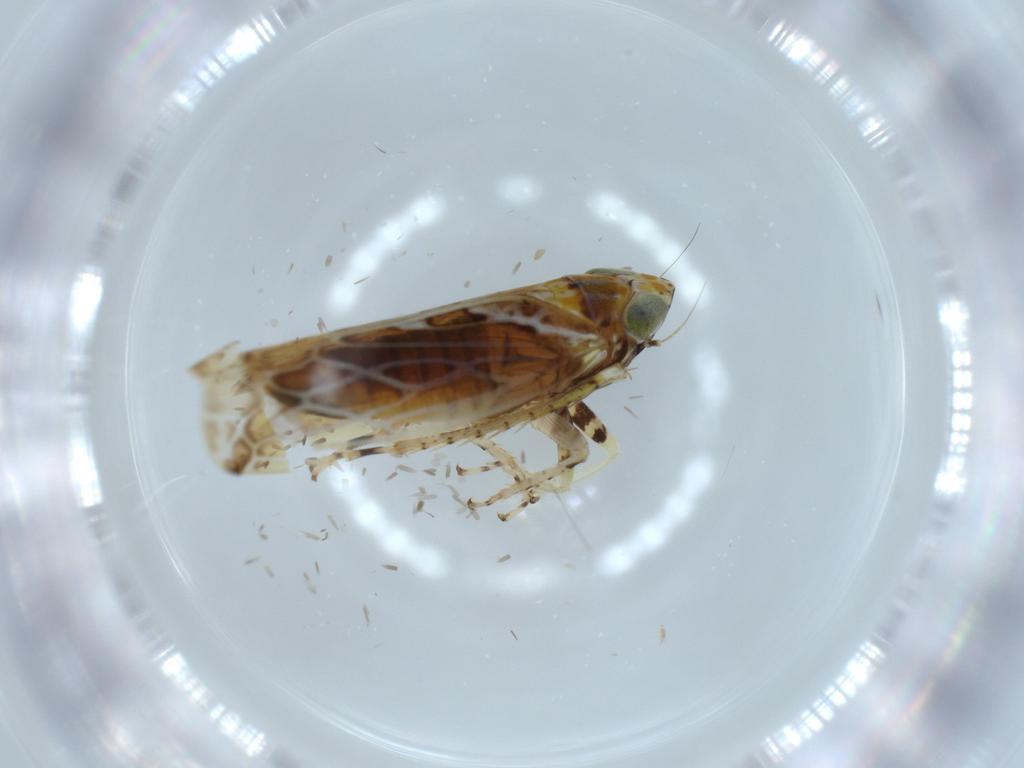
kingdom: Animalia
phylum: Arthropoda
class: Insecta
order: Hemiptera
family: Cicadellidae
